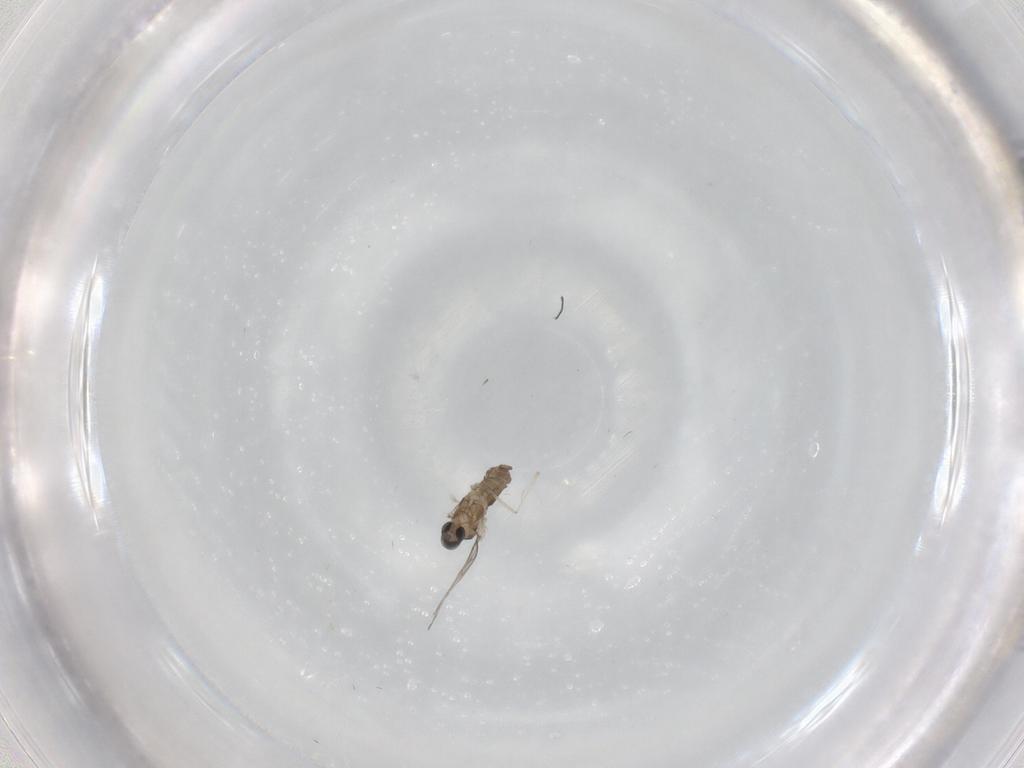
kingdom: Animalia
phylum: Arthropoda
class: Insecta
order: Diptera
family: Cecidomyiidae
